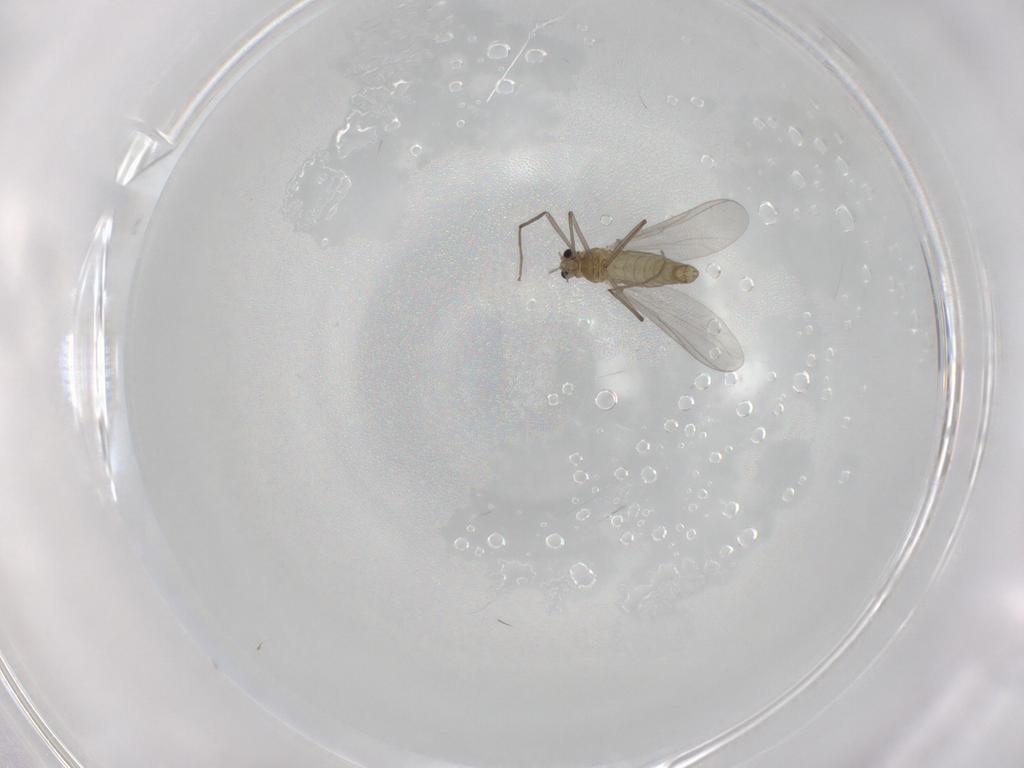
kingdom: Animalia
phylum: Arthropoda
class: Insecta
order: Diptera
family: Chironomidae
